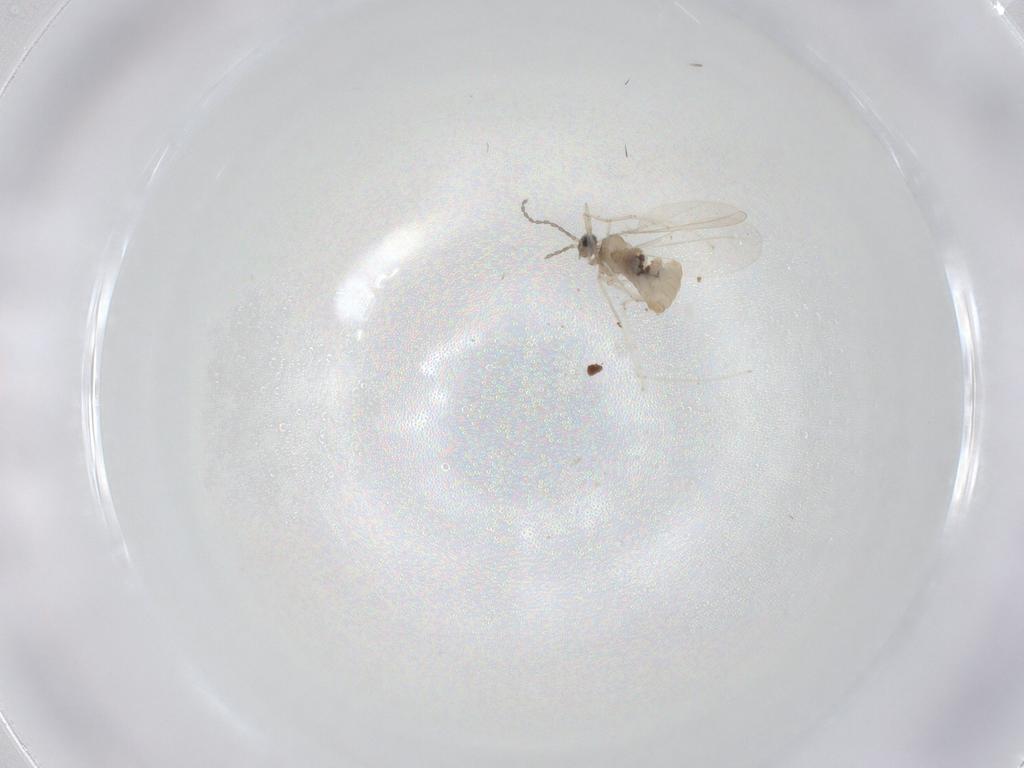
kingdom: Animalia
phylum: Arthropoda
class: Insecta
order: Diptera
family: Cecidomyiidae
